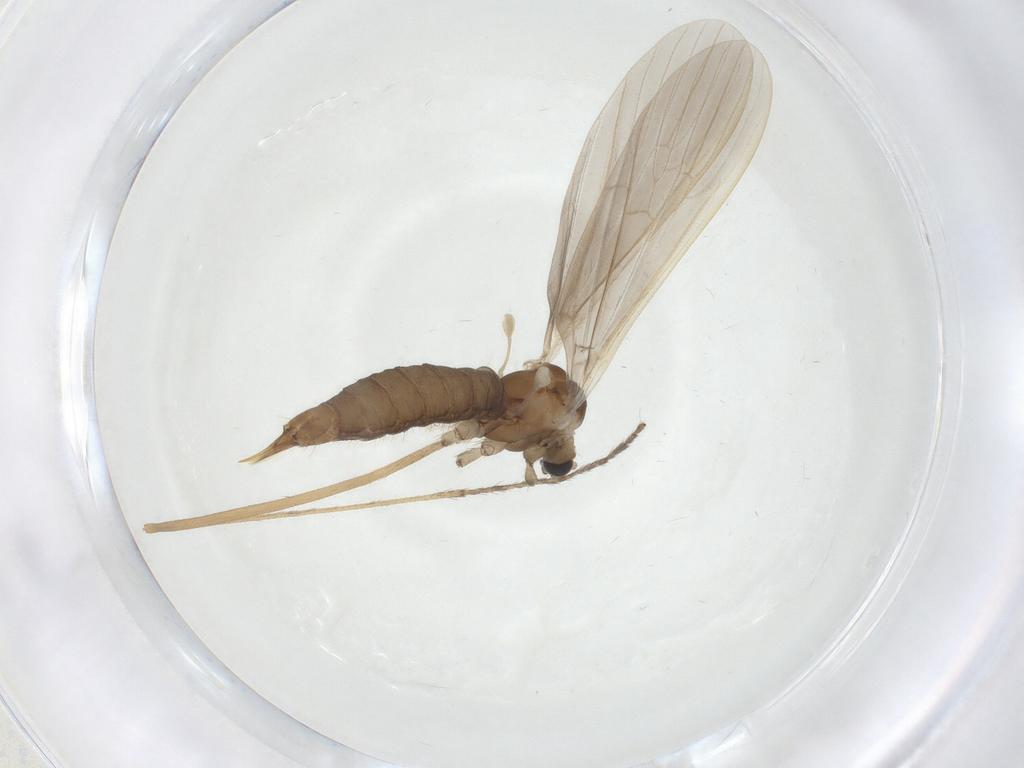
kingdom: Animalia
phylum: Arthropoda
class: Insecta
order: Diptera
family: Limoniidae
